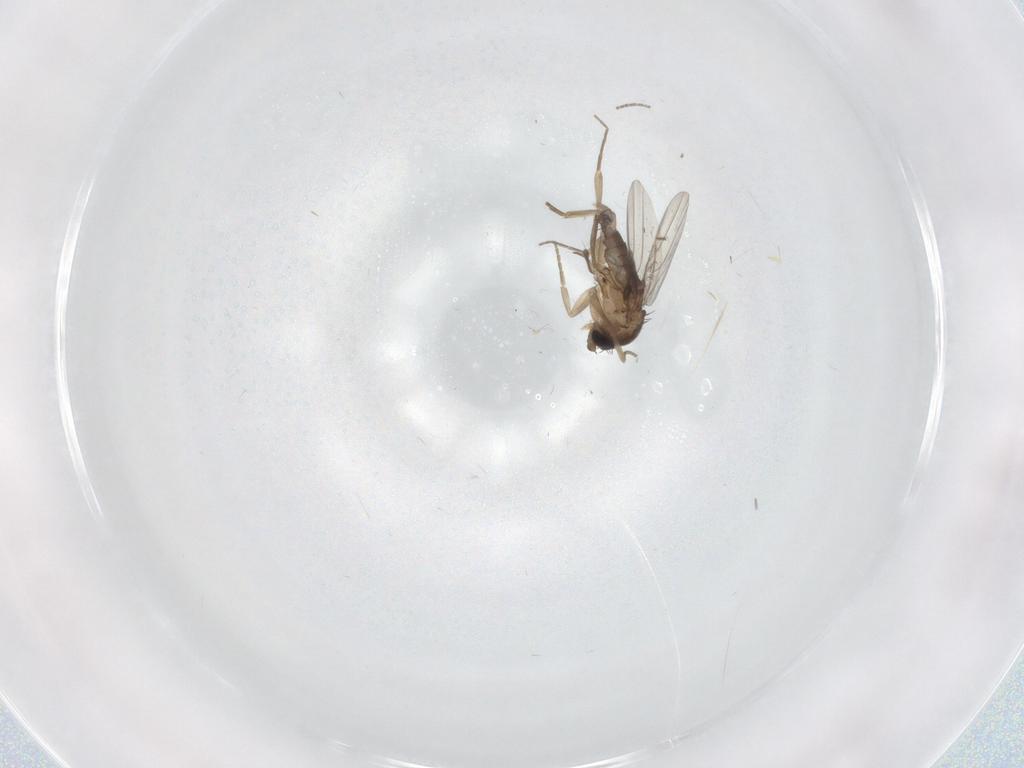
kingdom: Animalia
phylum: Arthropoda
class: Insecta
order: Diptera
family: Phoridae
